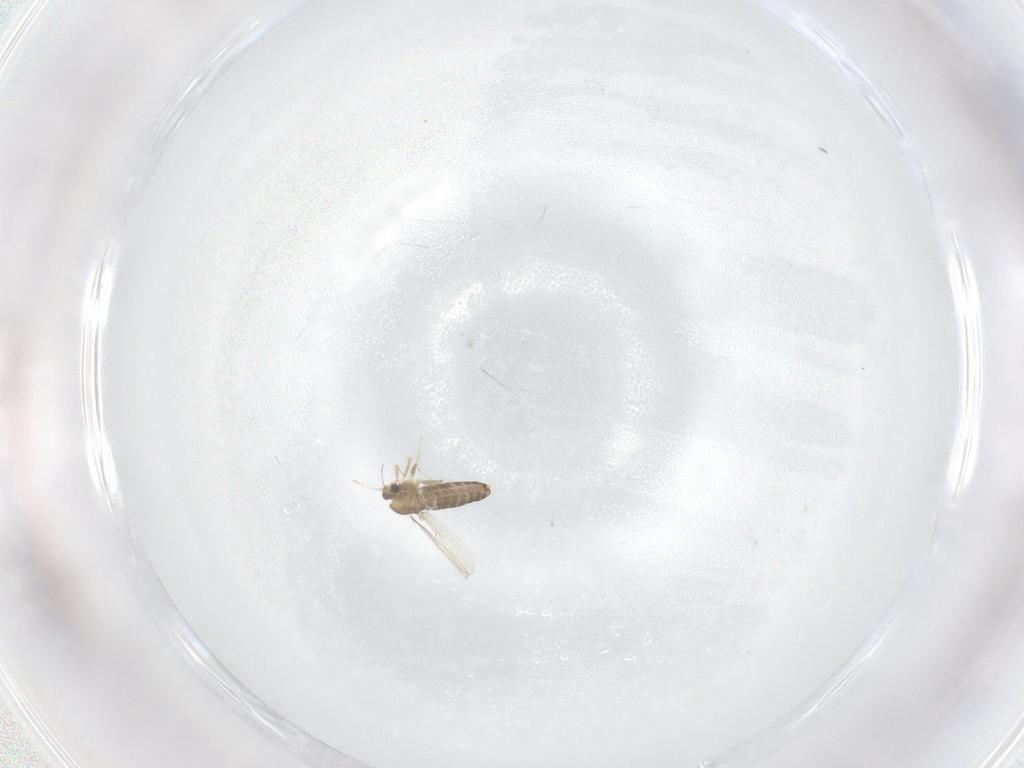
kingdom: Animalia
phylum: Arthropoda
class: Insecta
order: Diptera
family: Cecidomyiidae
